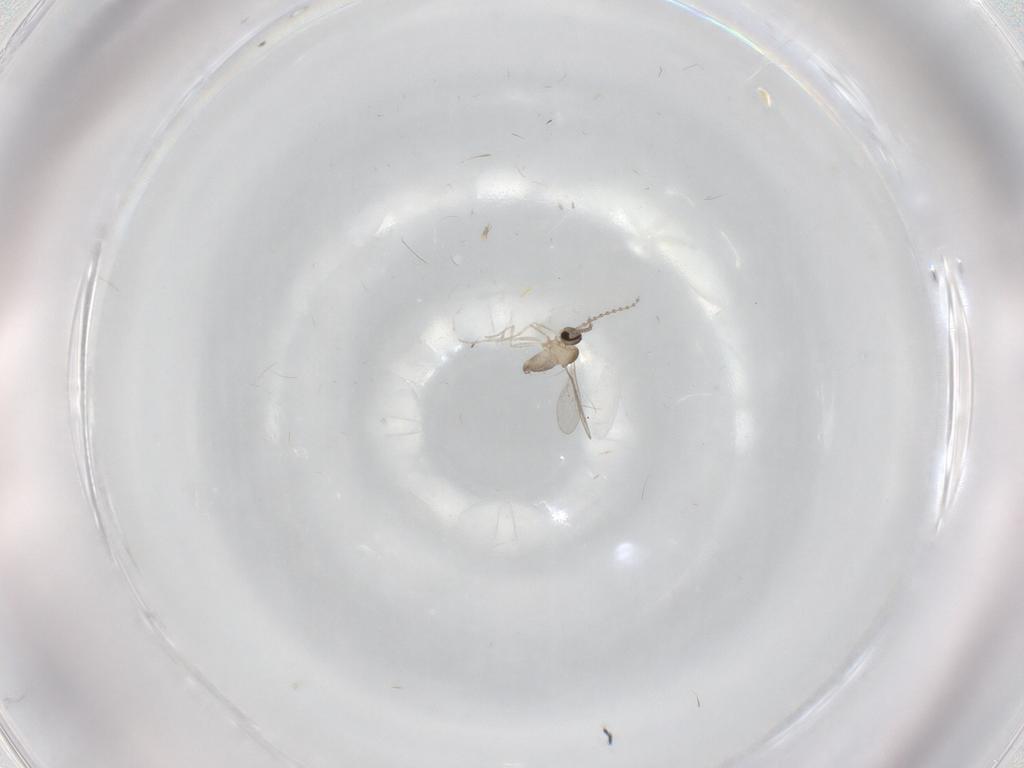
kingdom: Animalia
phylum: Arthropoda
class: Insecta
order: Diptera
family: Cecidomyiidae
